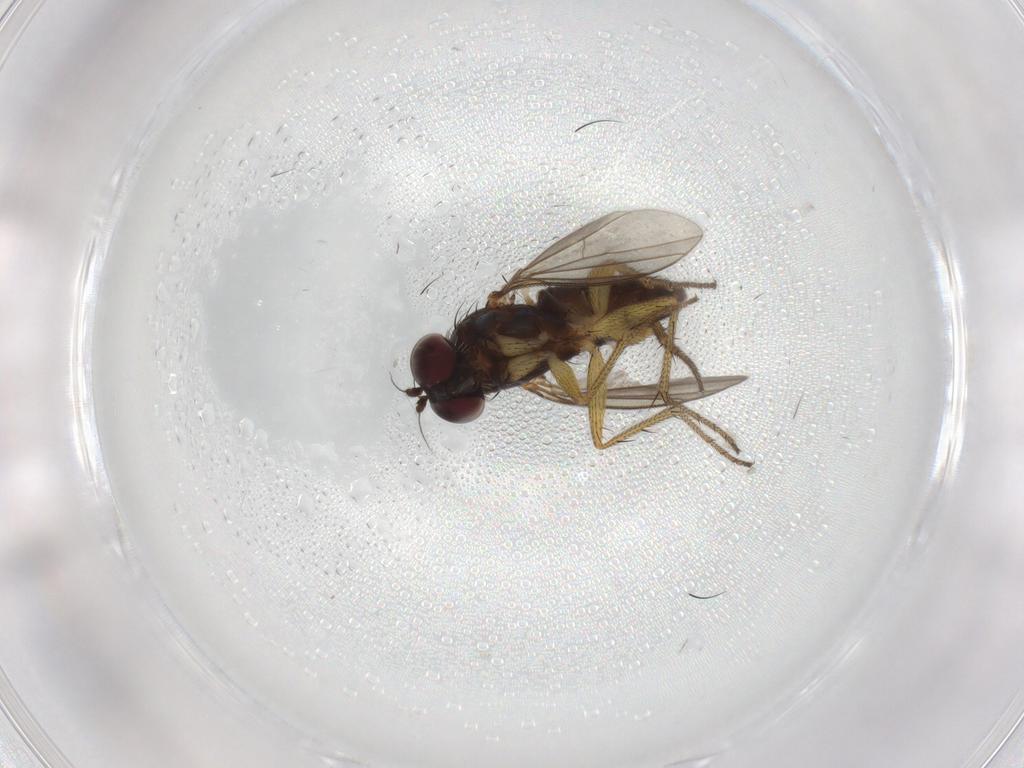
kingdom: Animalia
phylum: Arthropoda
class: Insecta
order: Diptera
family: Dolichopodidae
